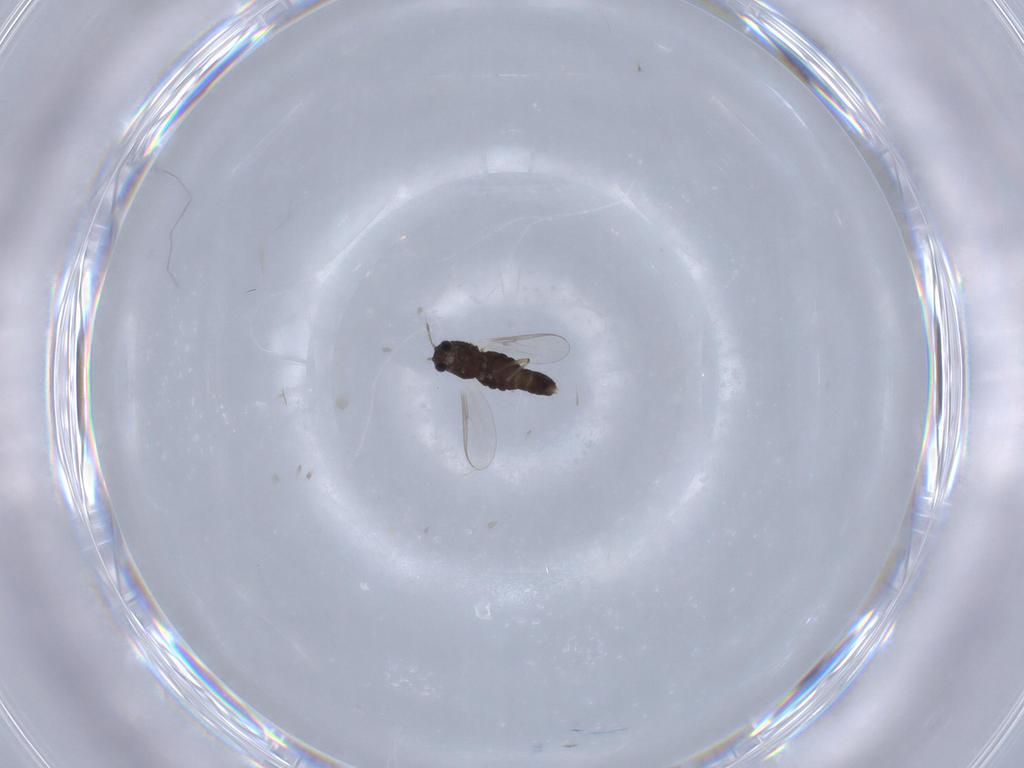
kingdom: Animalia
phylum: Arthropoda
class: Insecta
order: Diptera
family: Chironomidae
